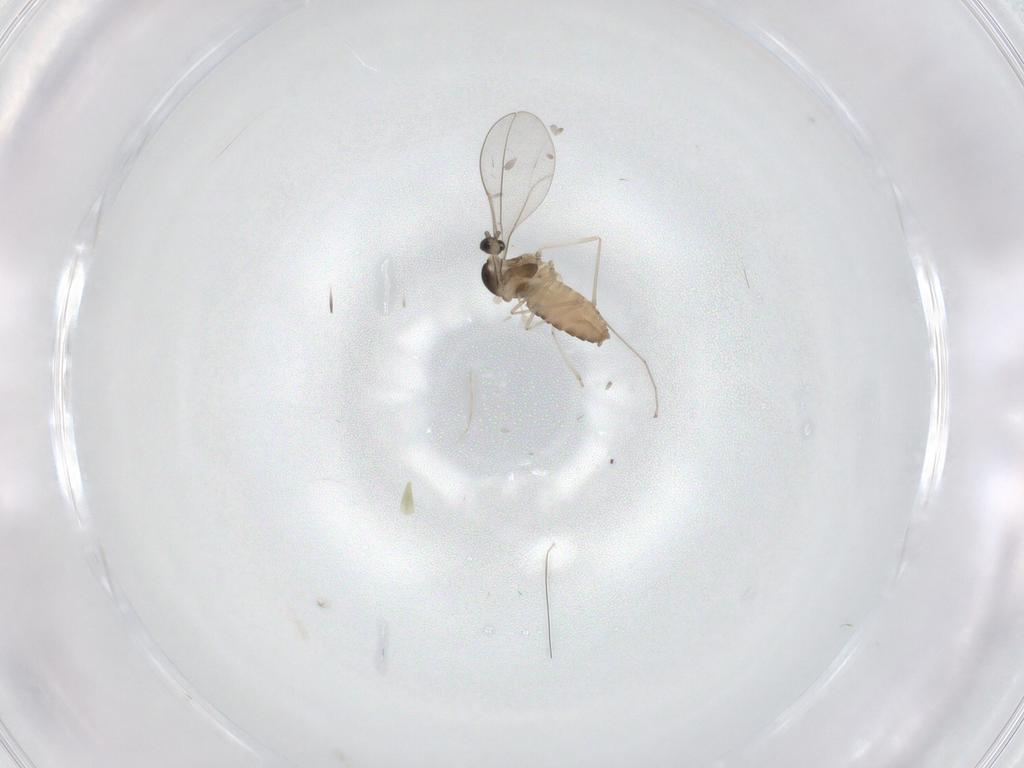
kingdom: Animalia
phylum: Arthropoda
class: Insecta
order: Diptera
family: Cecidomyiidae
